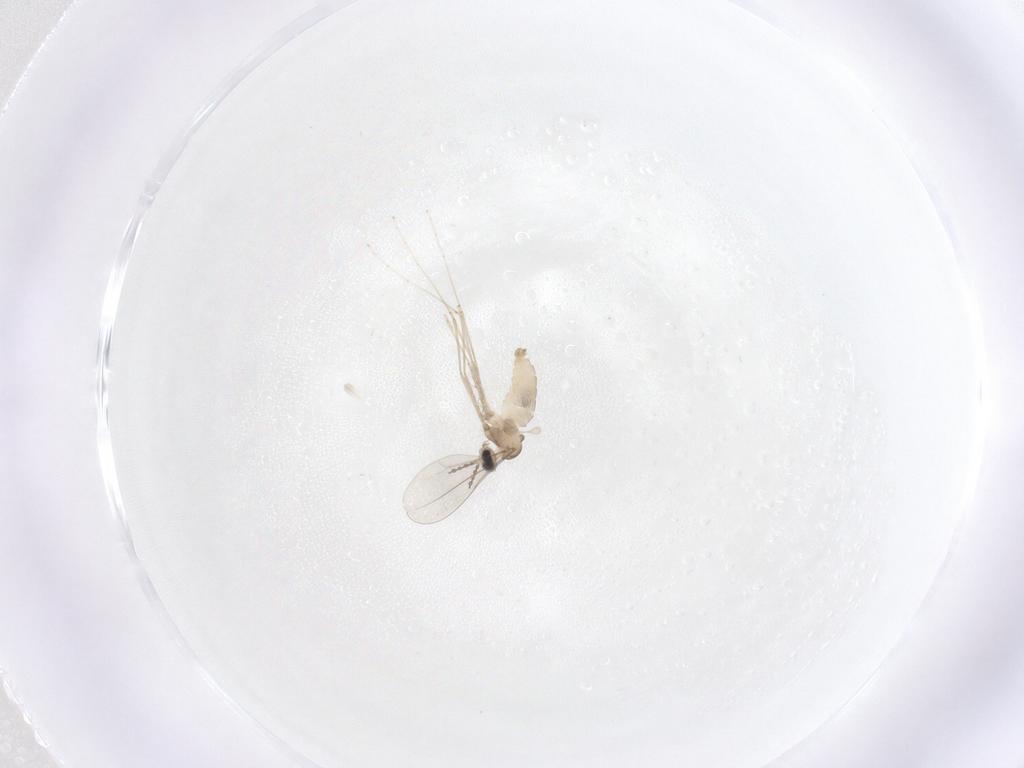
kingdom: Animalia
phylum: Arthropoda
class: Insecta
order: Diptera
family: Cecidomyiidae
